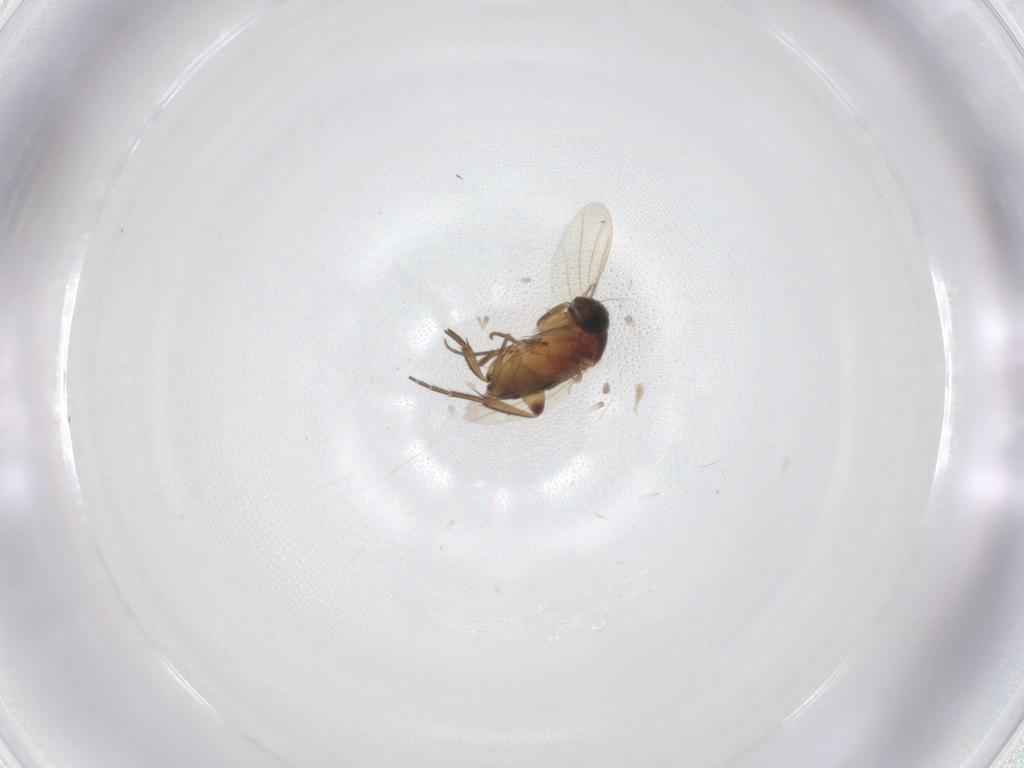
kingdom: Animalia
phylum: Arthropoda
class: Insecta
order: Diptera
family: Phoridae
